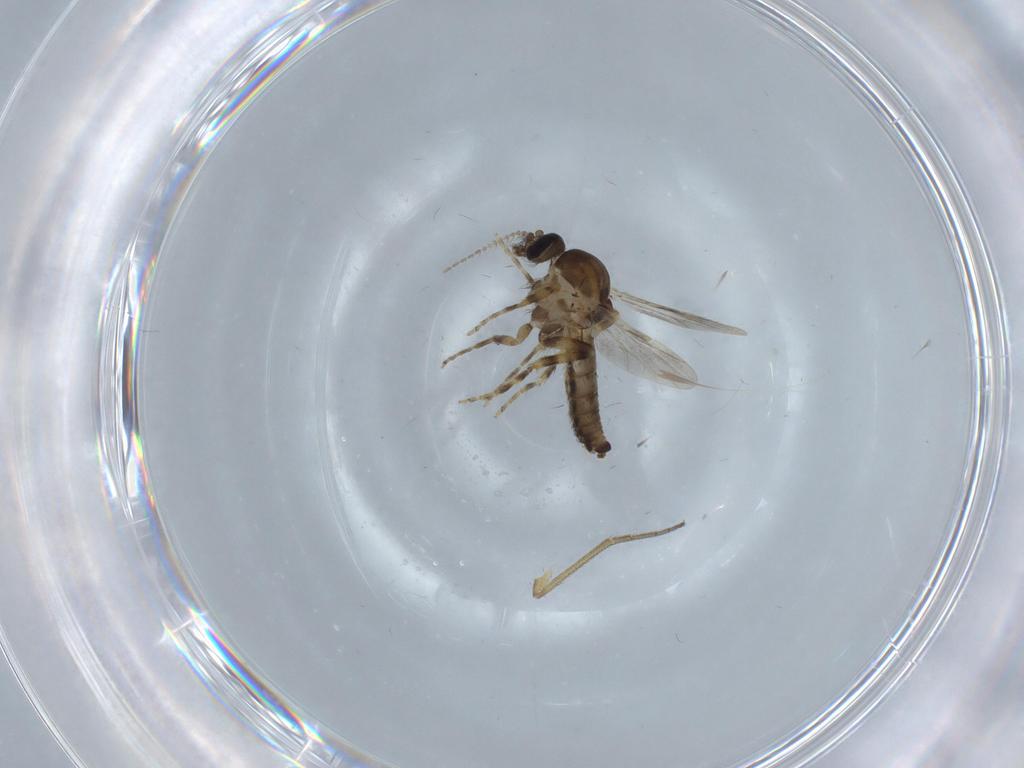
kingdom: Animalia
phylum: Arthropoda
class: Insecta
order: Diptera
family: Ceratopogonidae
